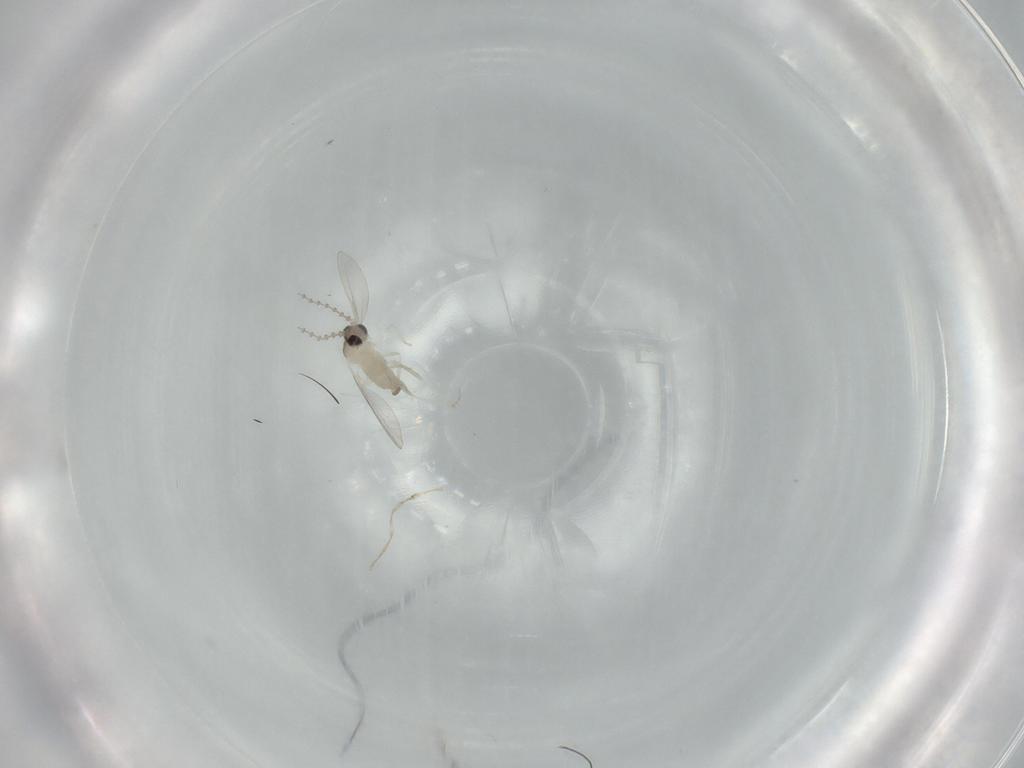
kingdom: Animalia
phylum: Arthropoda
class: Insecta
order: Diptera
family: Cecidomyiidae
